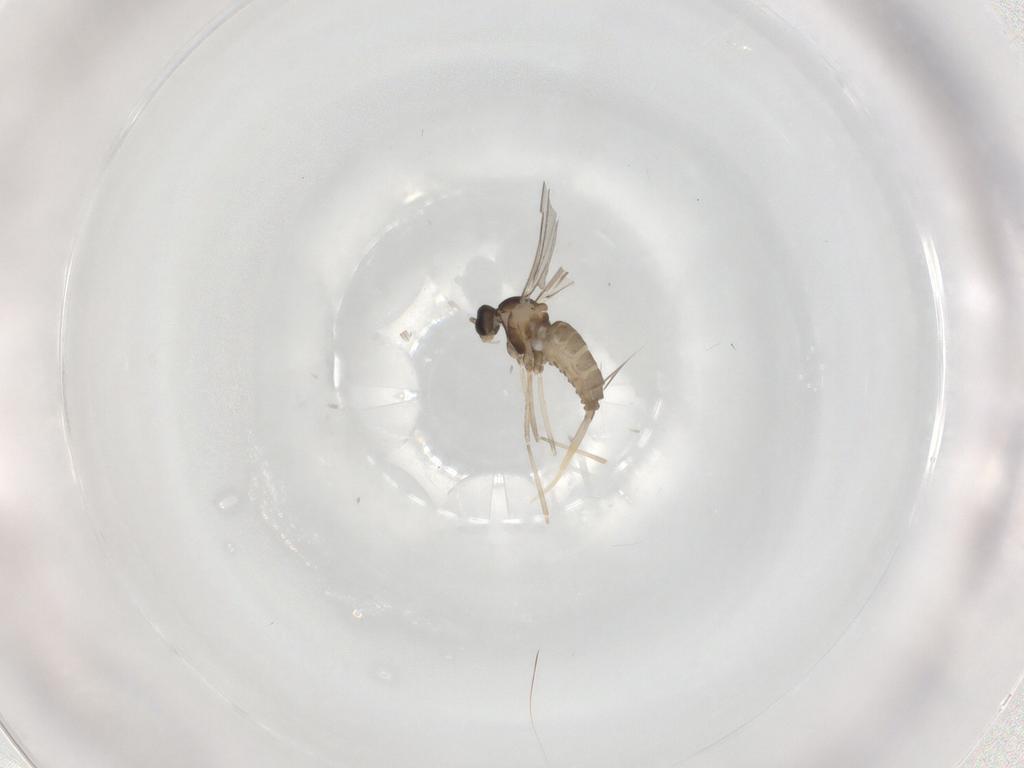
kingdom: Animalia
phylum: Arthropoda
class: Insecta
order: Diptera
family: Cecidomyiidae
